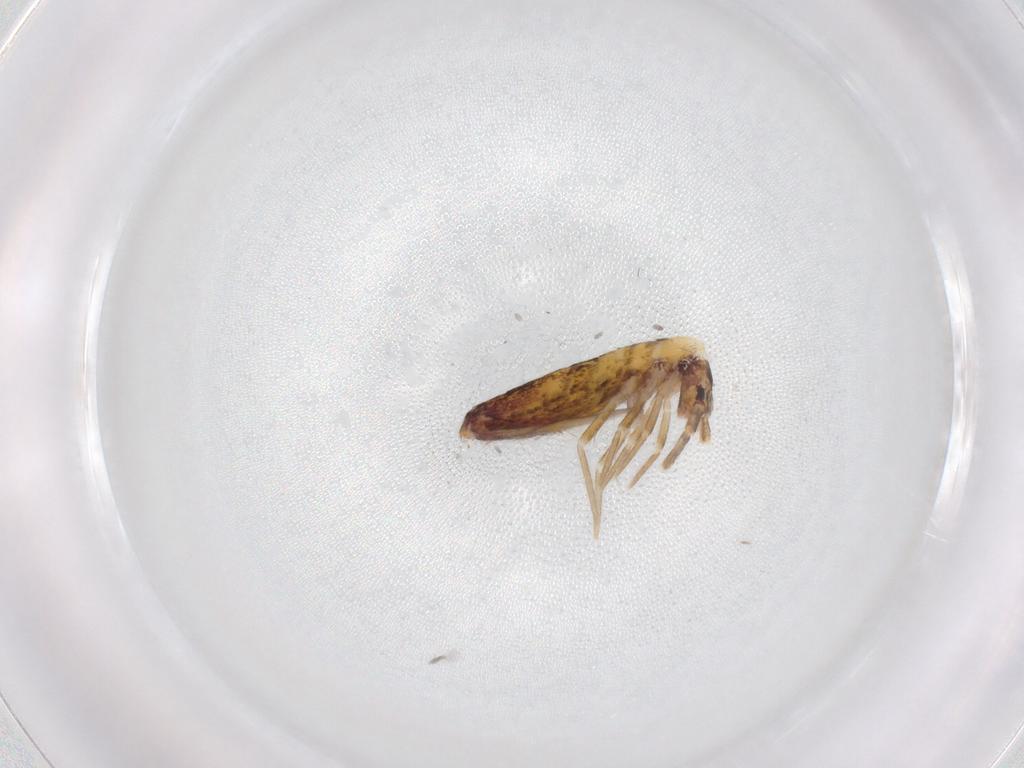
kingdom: Animalia
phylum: Arthropoda
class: Collembola
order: Entomobryomorpha
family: Entomobryidae
